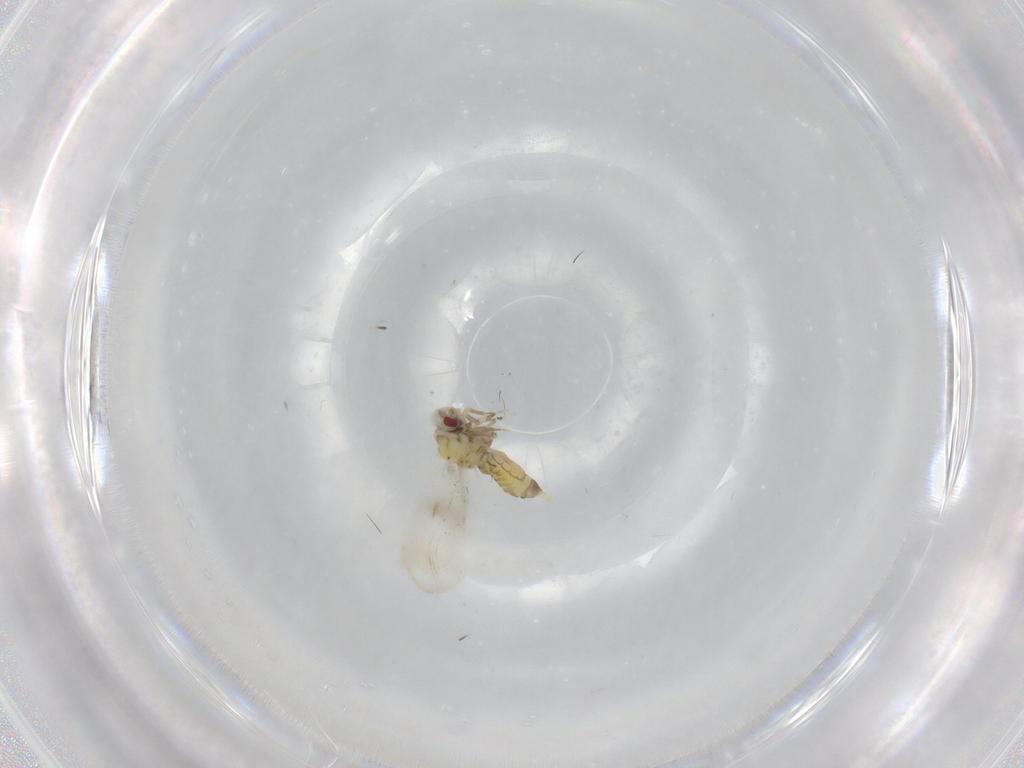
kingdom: Animalia
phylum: Arthropoda
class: Insecta
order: Hemiptera
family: Aleyrodidae
